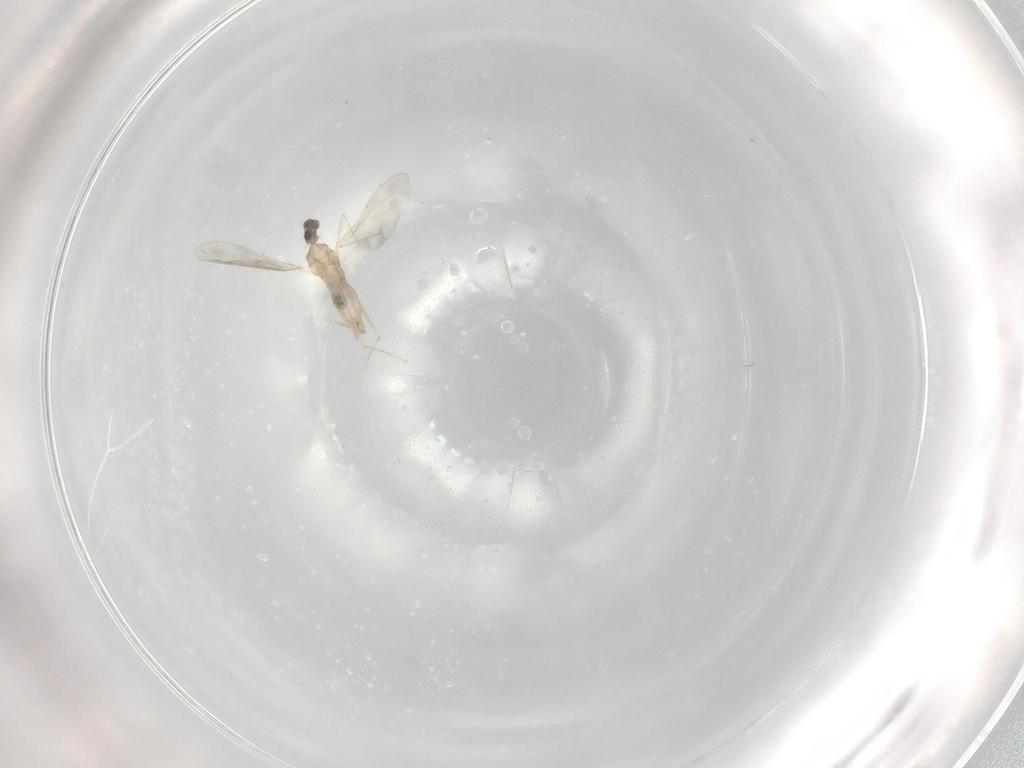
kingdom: Animalia
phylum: Arthropoda
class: Insecta
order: Diptera
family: Cecidomyiidae
